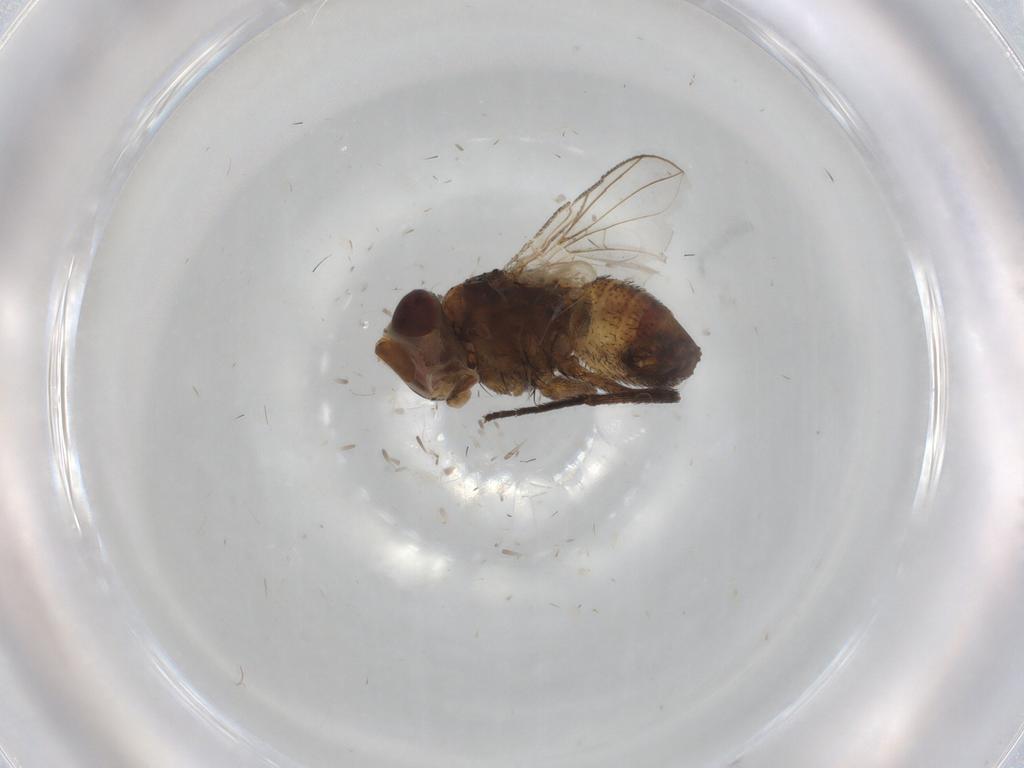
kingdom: Animalia
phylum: Arthropoda
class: Insecta
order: Diptera
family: Glossinidae
